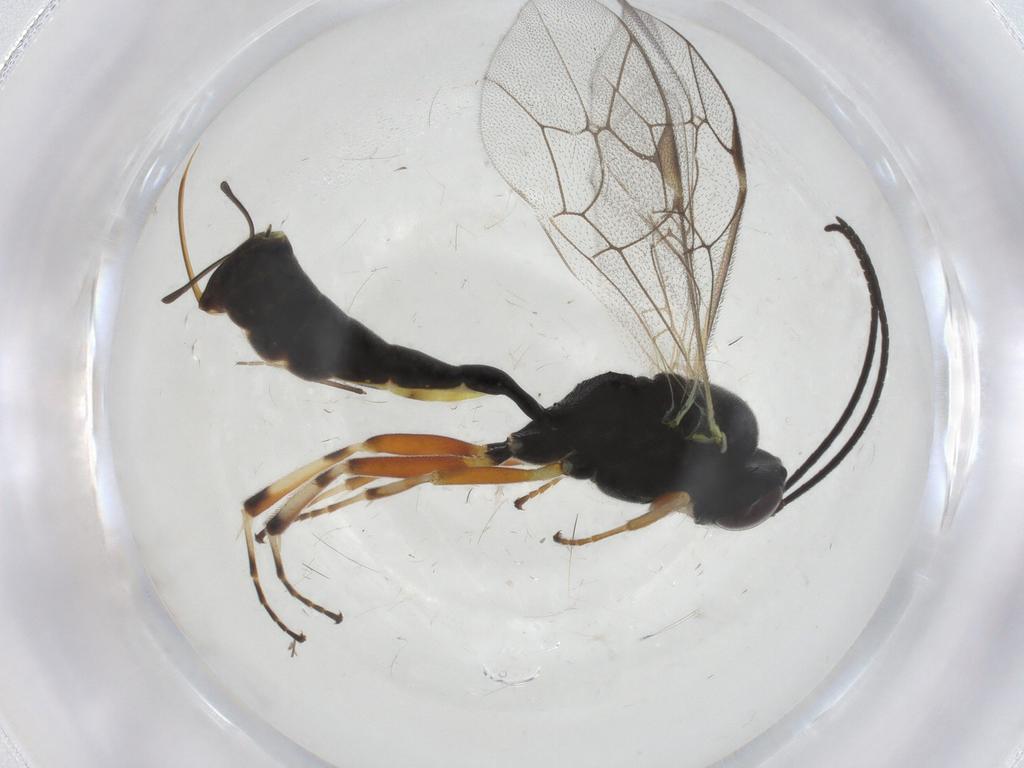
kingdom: Animalia
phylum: Arthropoda
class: Insecta
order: Hymenoptera
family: Ichneumonidae
